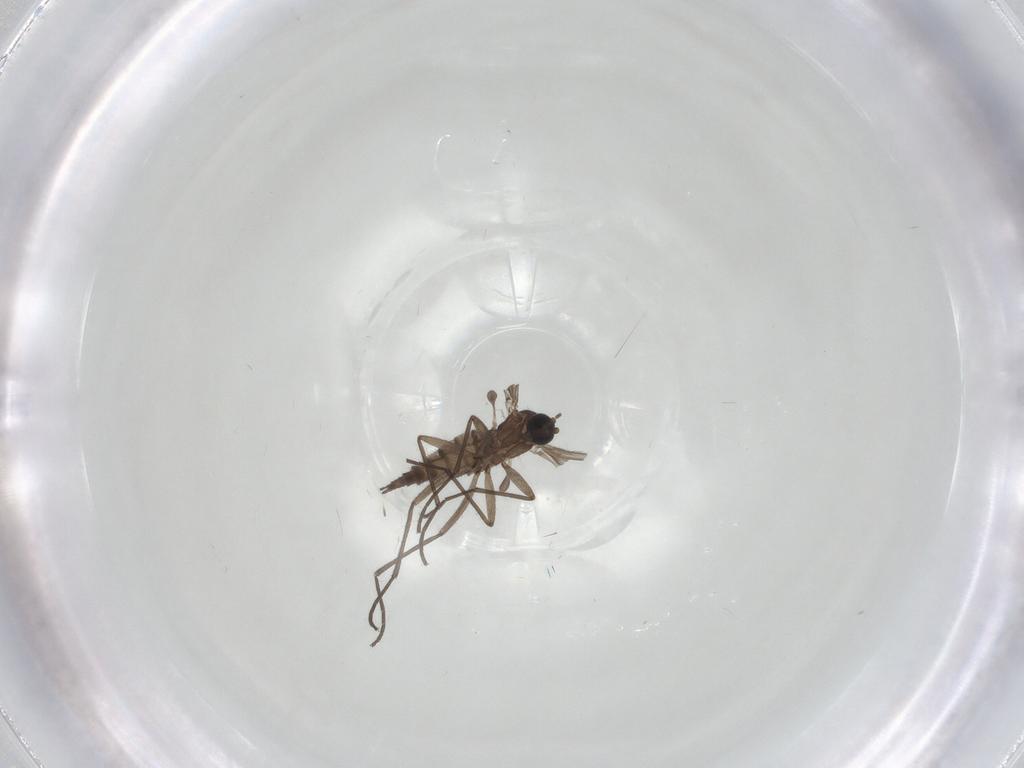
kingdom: Animalia
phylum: Arthropoda
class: Insecta
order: Diptera
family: Sciaridae
